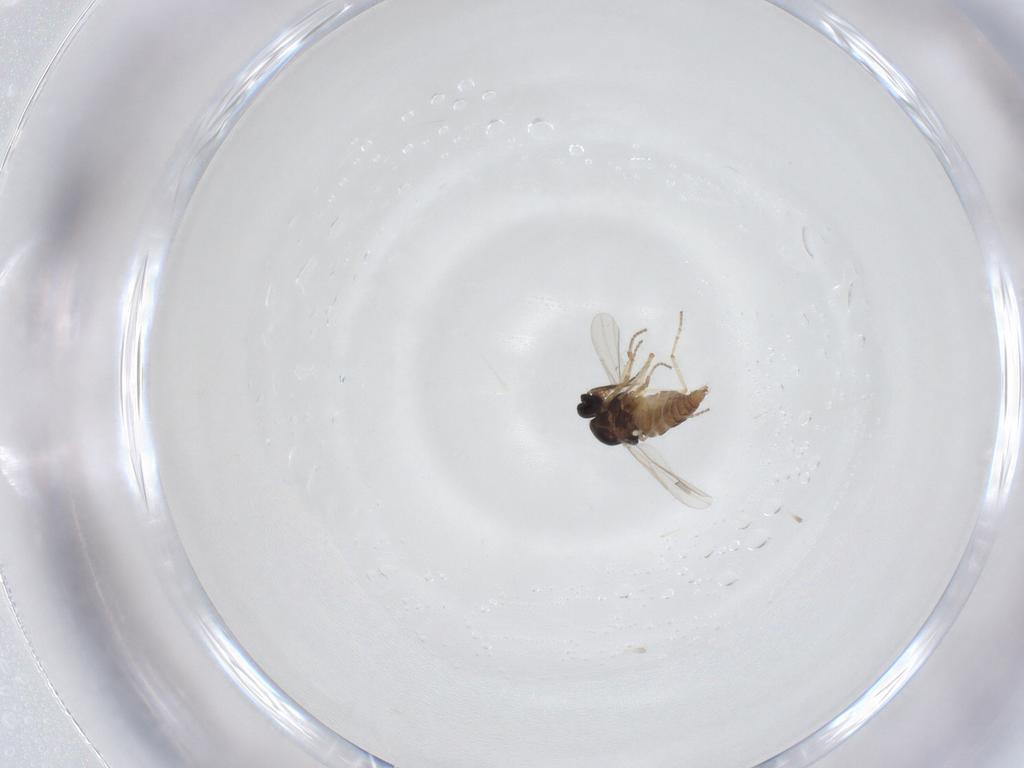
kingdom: Animalia
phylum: Arthropoda
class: Insecta
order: Diptera
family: Ceratopogonidae
